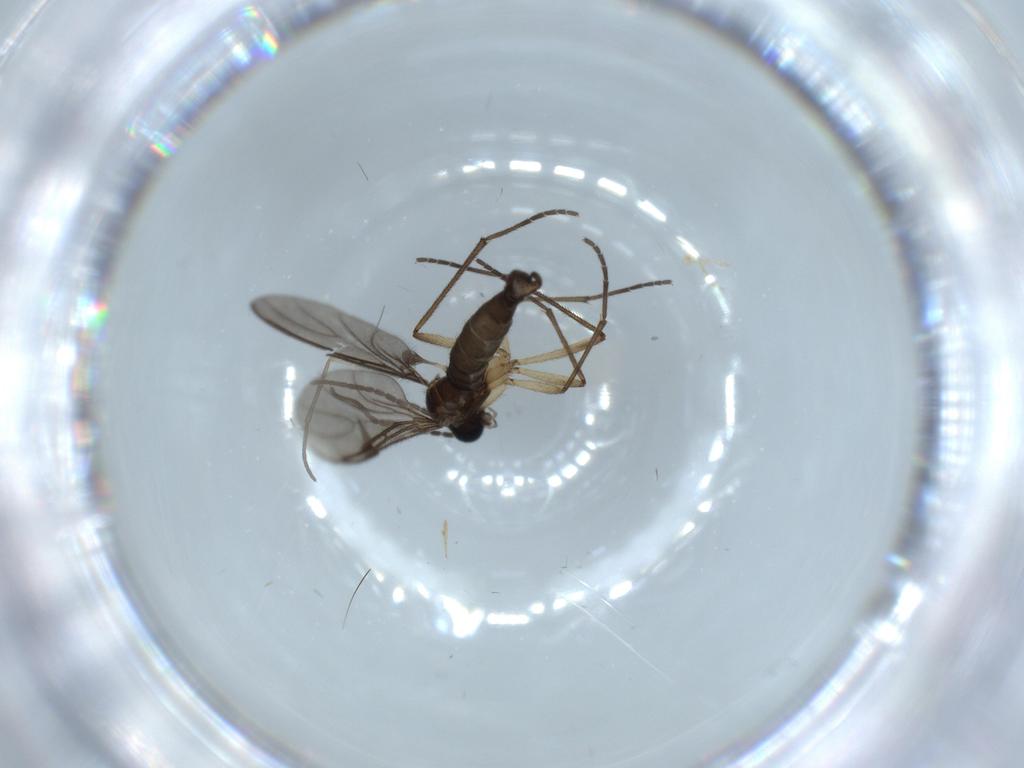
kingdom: Animalia
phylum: Arthropoda
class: Insecta
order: Diptera
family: Sciaridae
